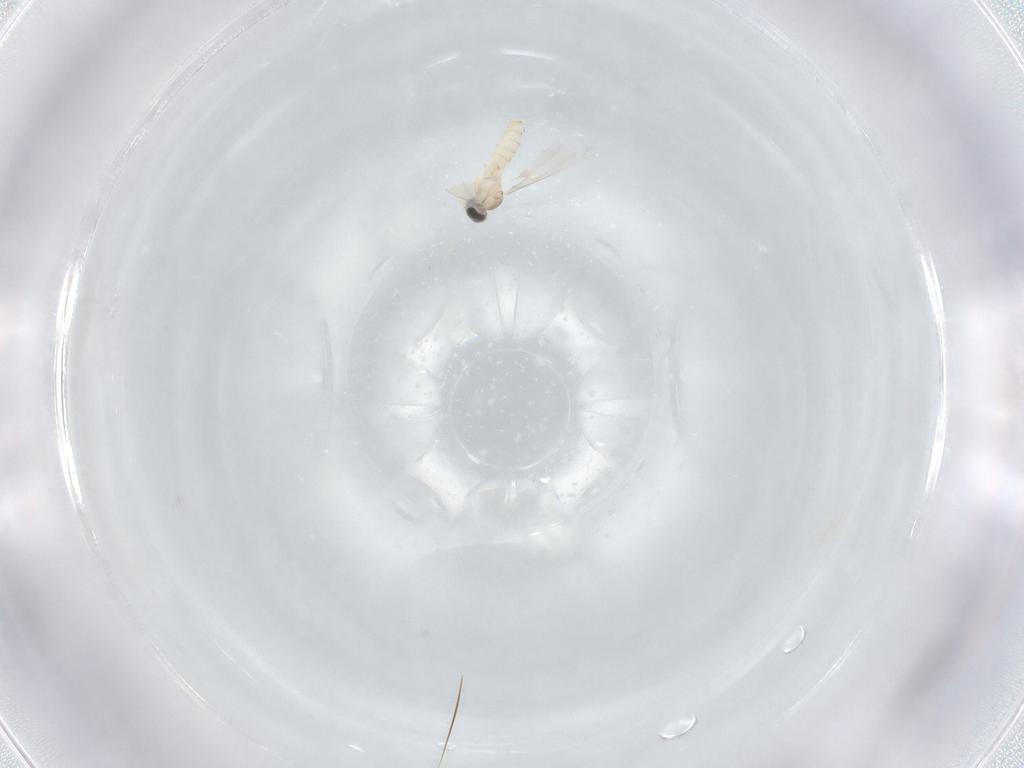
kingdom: Animalia
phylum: Arthropoda
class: Insecta
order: Diptera
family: Cecidomyiidae
